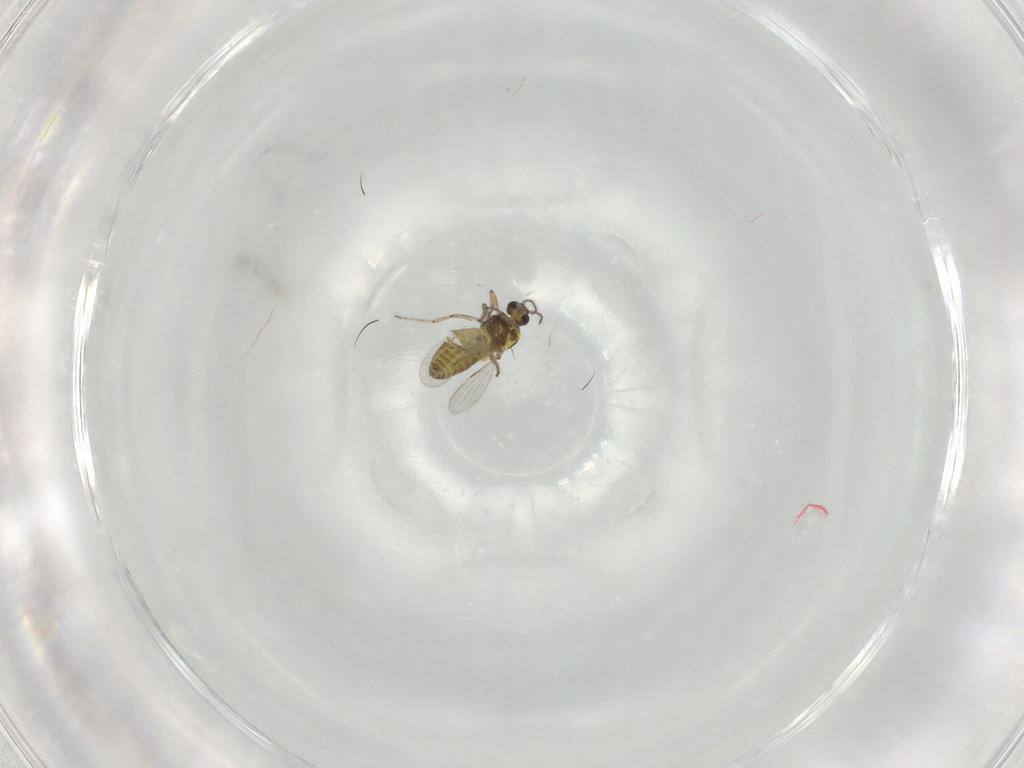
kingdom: Animalia
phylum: Arthropoda
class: Insecta
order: Diptera
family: Ceratopogonidae
